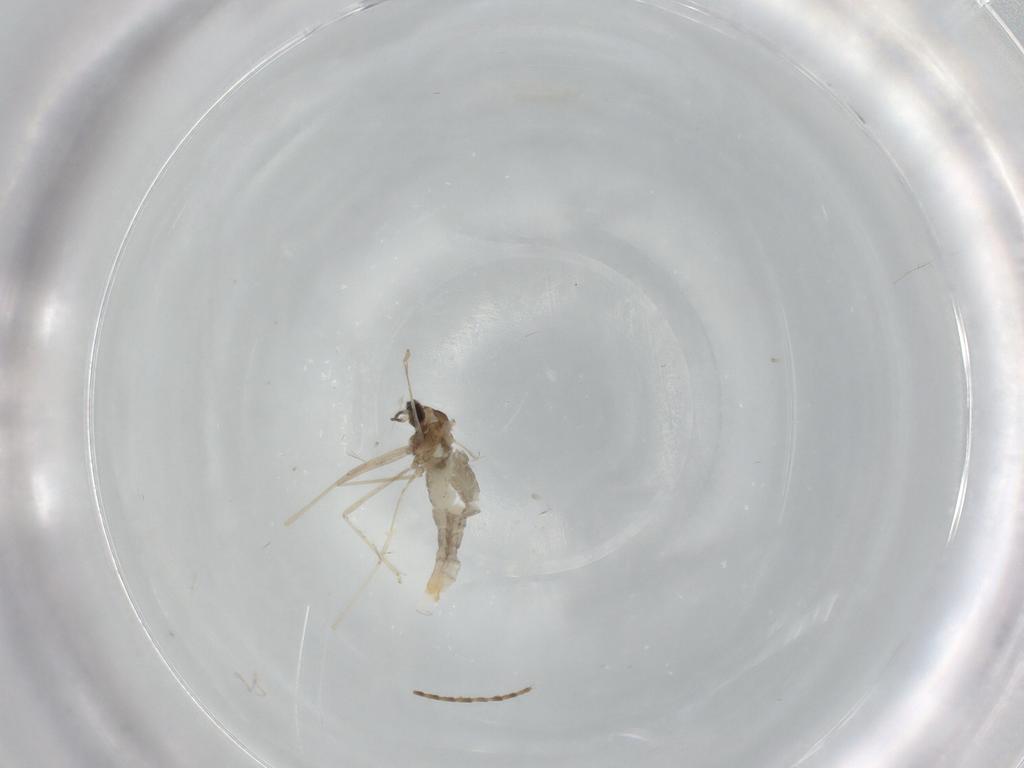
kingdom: Animalia
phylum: Arthropoda
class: Insecta
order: Diptera
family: Cecidomyiidae
